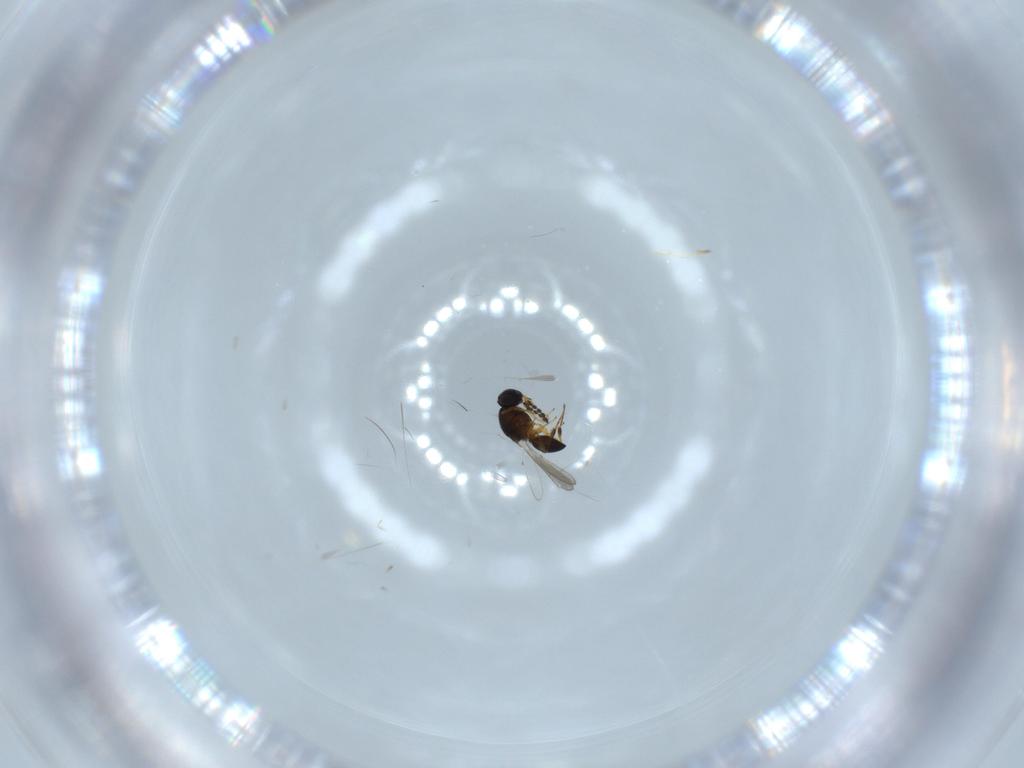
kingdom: Animalia
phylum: Arthropoda
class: Insecta
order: Hymenoptera
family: Platygastridae
